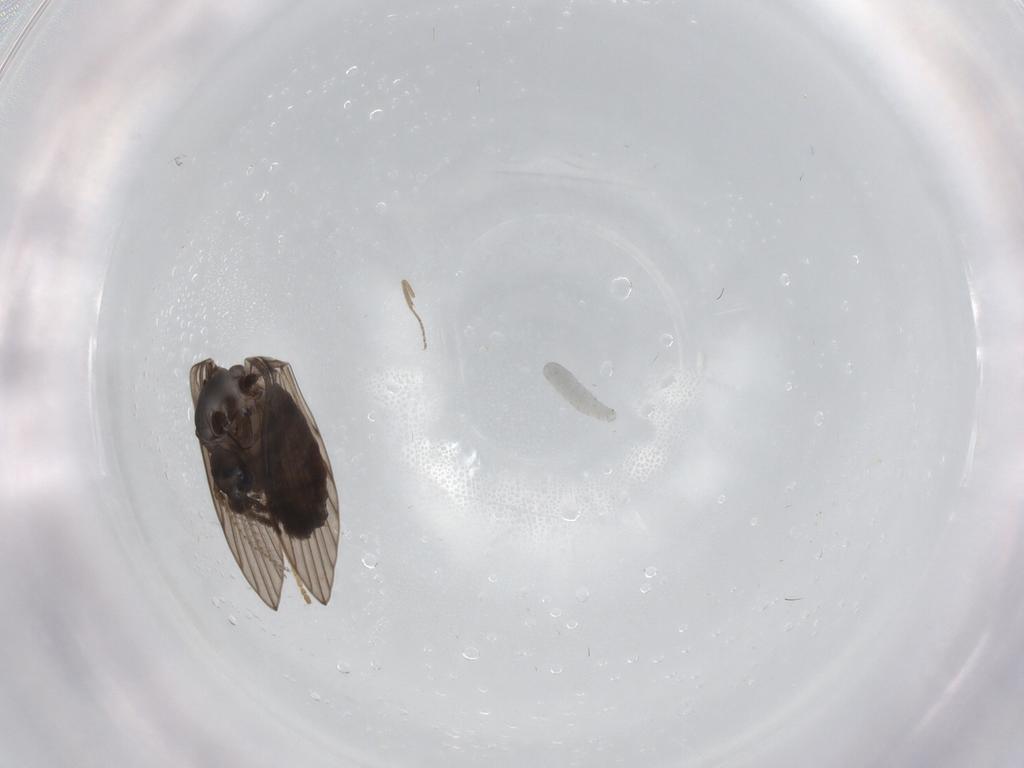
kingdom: Animalia
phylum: Arthropoda
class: Insecta
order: Diptera
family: Psychodidae
